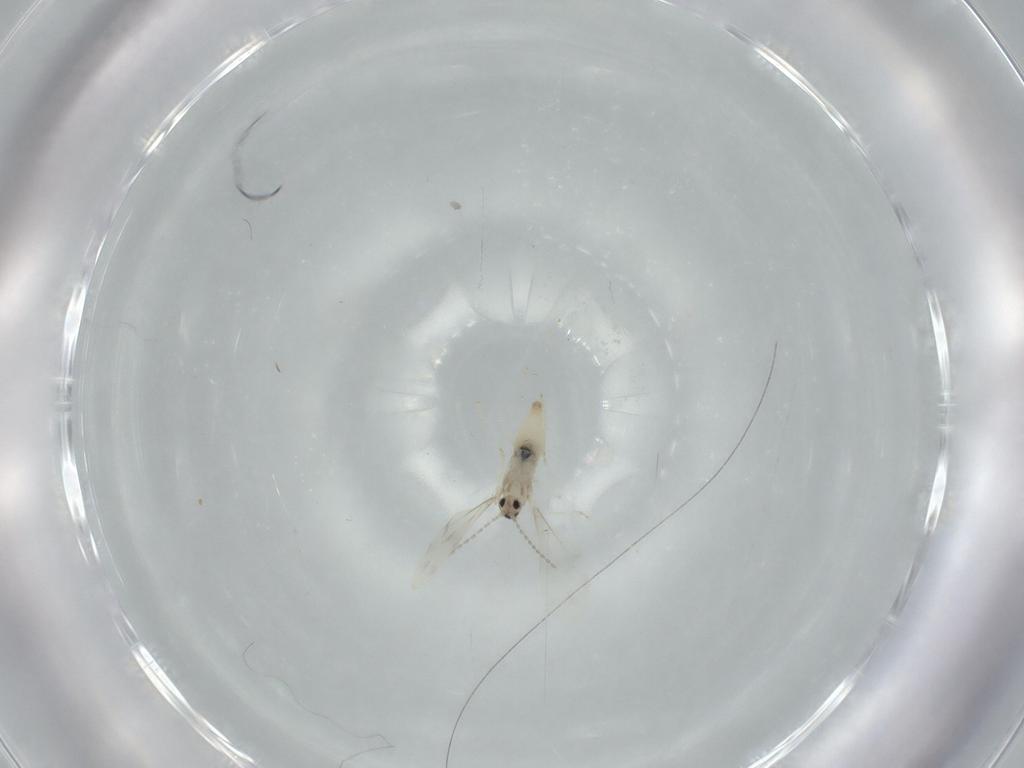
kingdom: Animalia
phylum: Arthropoda
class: Insecta
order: Diptera
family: Cecidomyiidae
